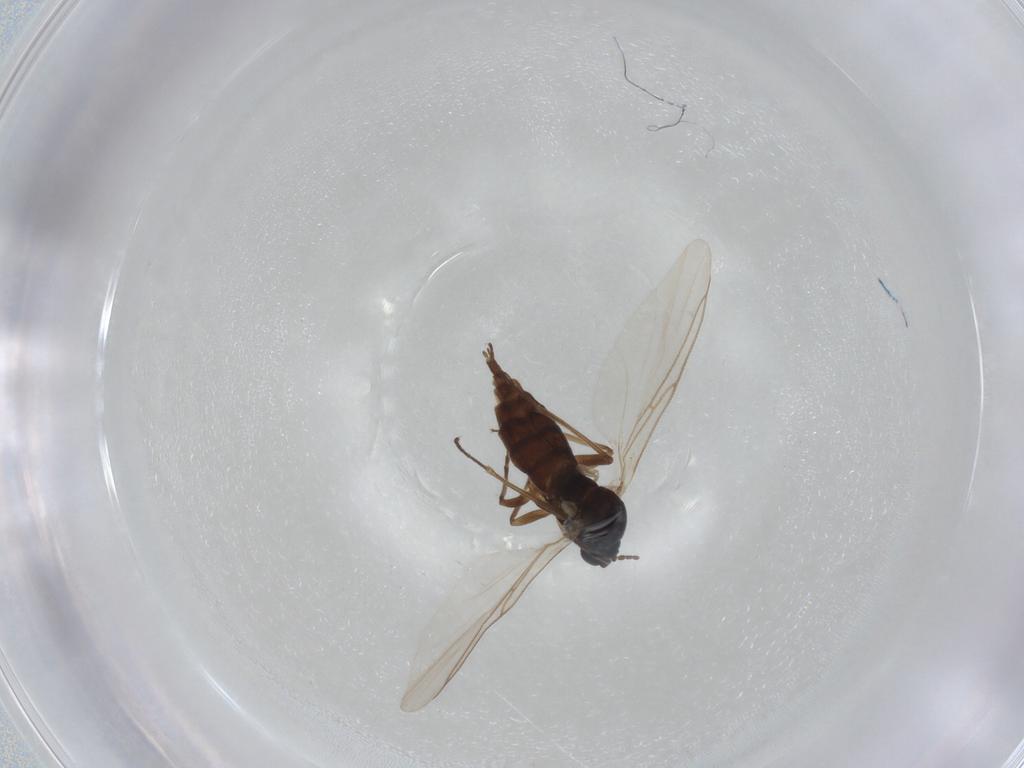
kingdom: Animalia
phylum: Arthropoda
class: Insecta
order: Diptera
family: Sciaridae
